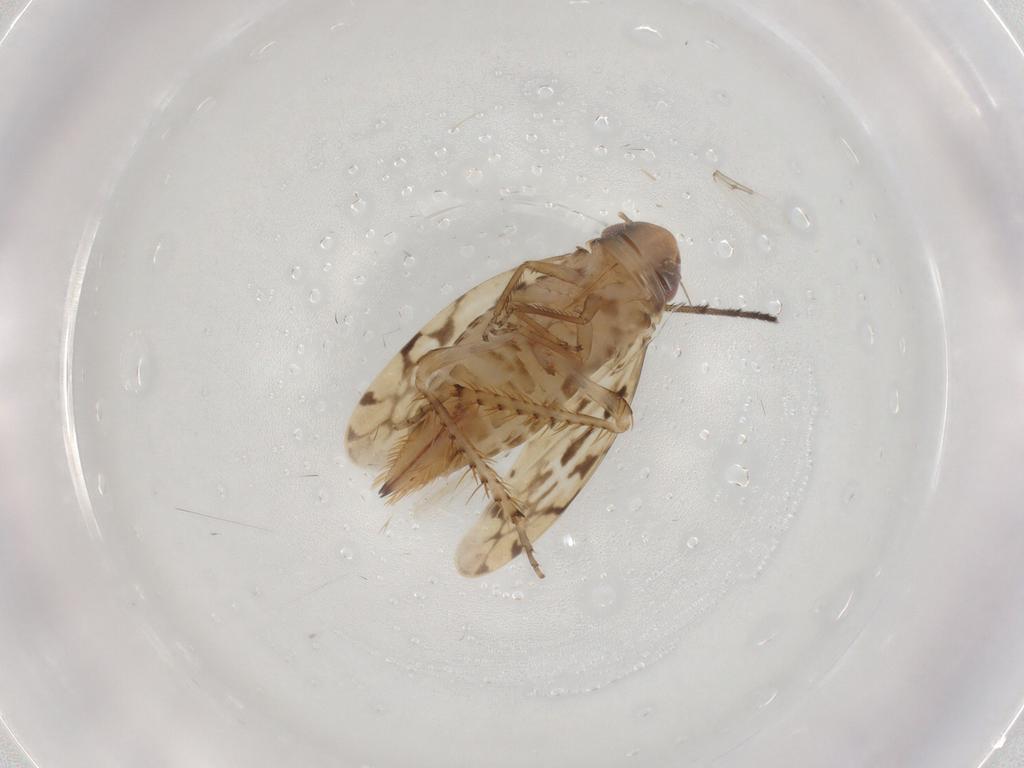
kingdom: Animalia
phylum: Arthropoda
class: Insecta
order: Hemiptera
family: Cicadellidae
